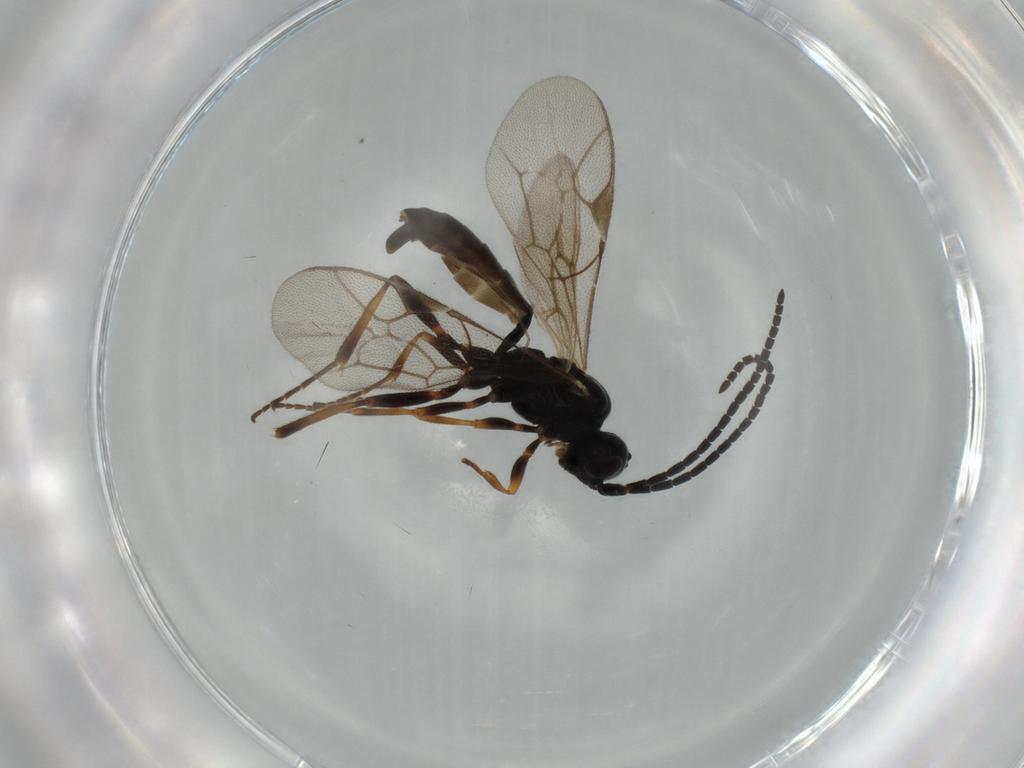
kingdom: Animalia
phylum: Arthropoda
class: Insecta
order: Hymenoptera
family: Ichneumonidae
